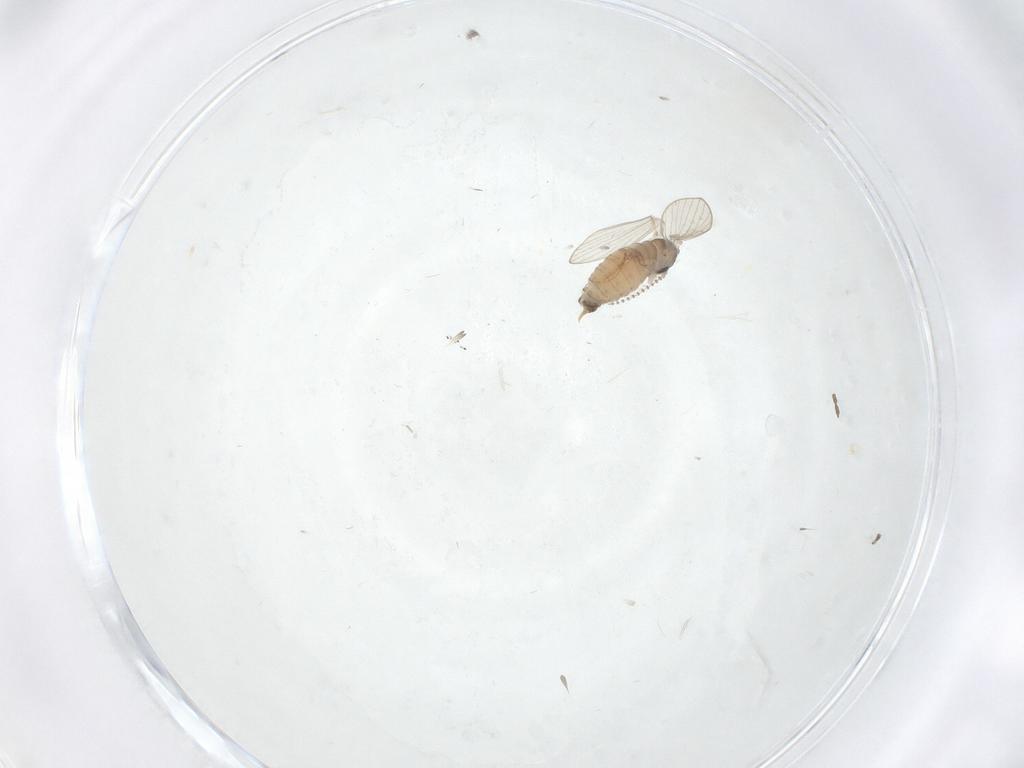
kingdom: Animalia
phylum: Arthropoda
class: Insecta
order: Diptera
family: Psychodidae
